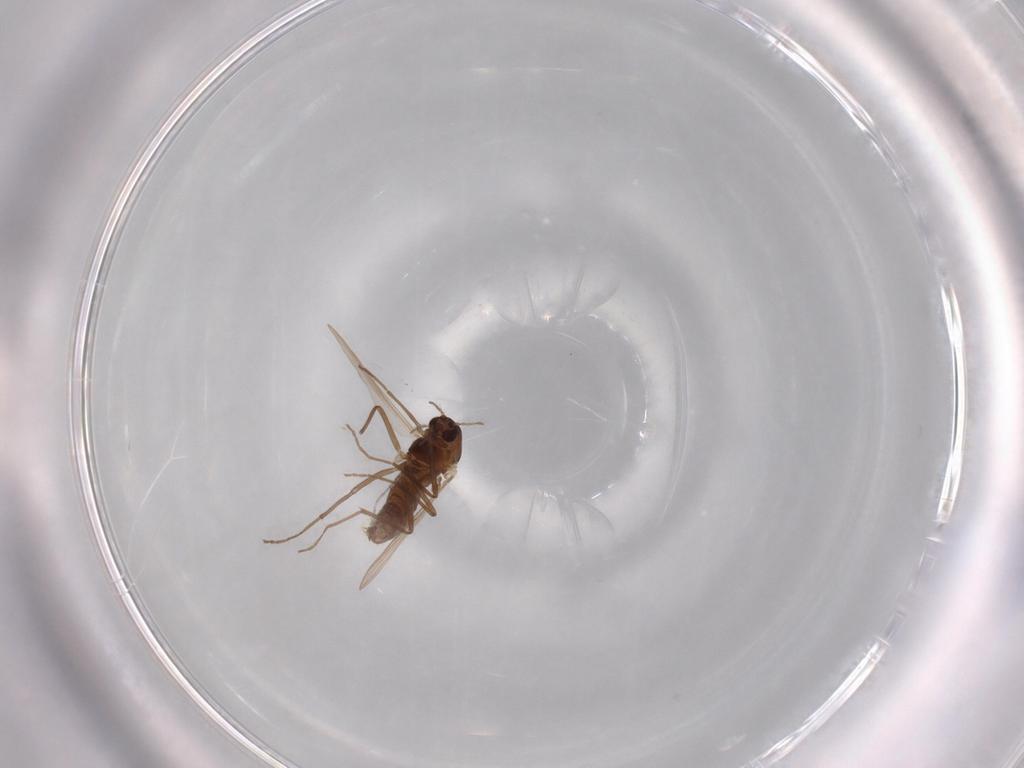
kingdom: Animalia
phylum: Arthropoda
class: Insecta
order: Diptera
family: Chironomidae
